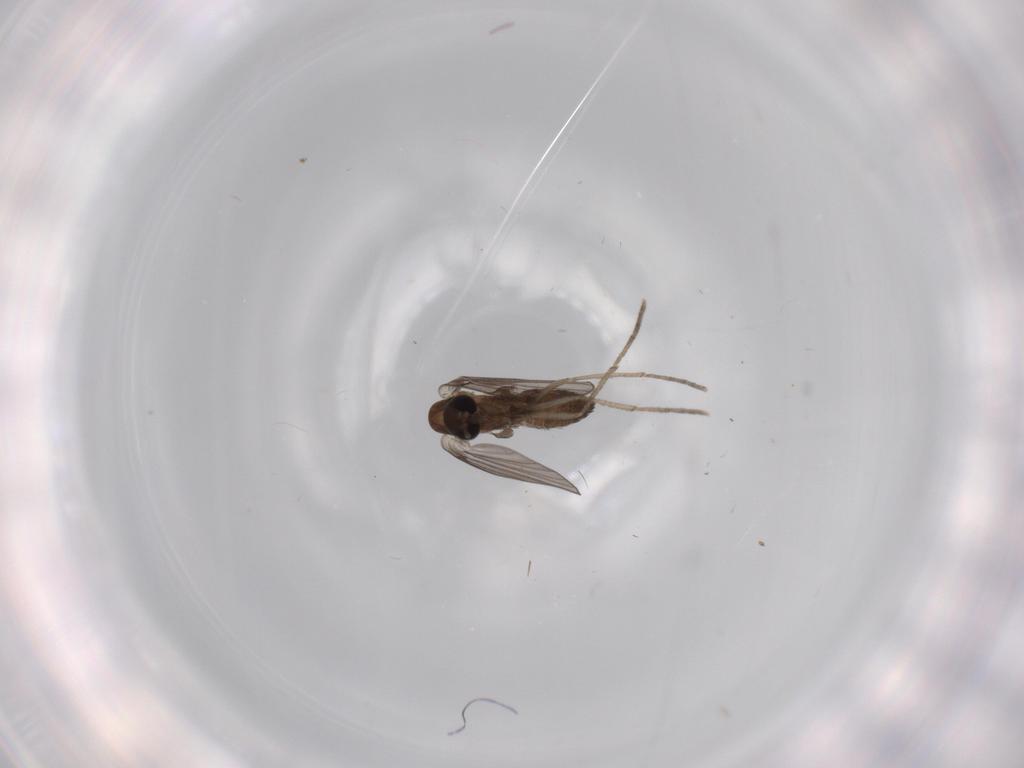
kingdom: Animalia
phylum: Arthropoda
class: Insecta
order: Diptera
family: Psychodidae
